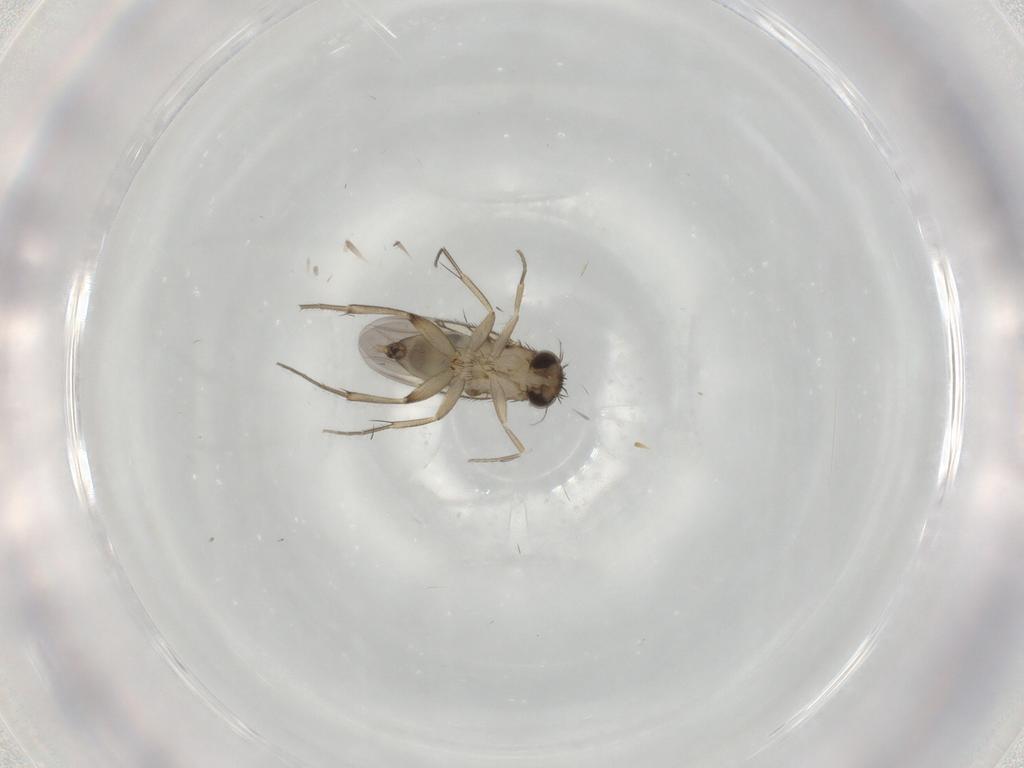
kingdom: Animalia
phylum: Arthropoda
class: Insecta
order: Diptera
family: Phoridae
